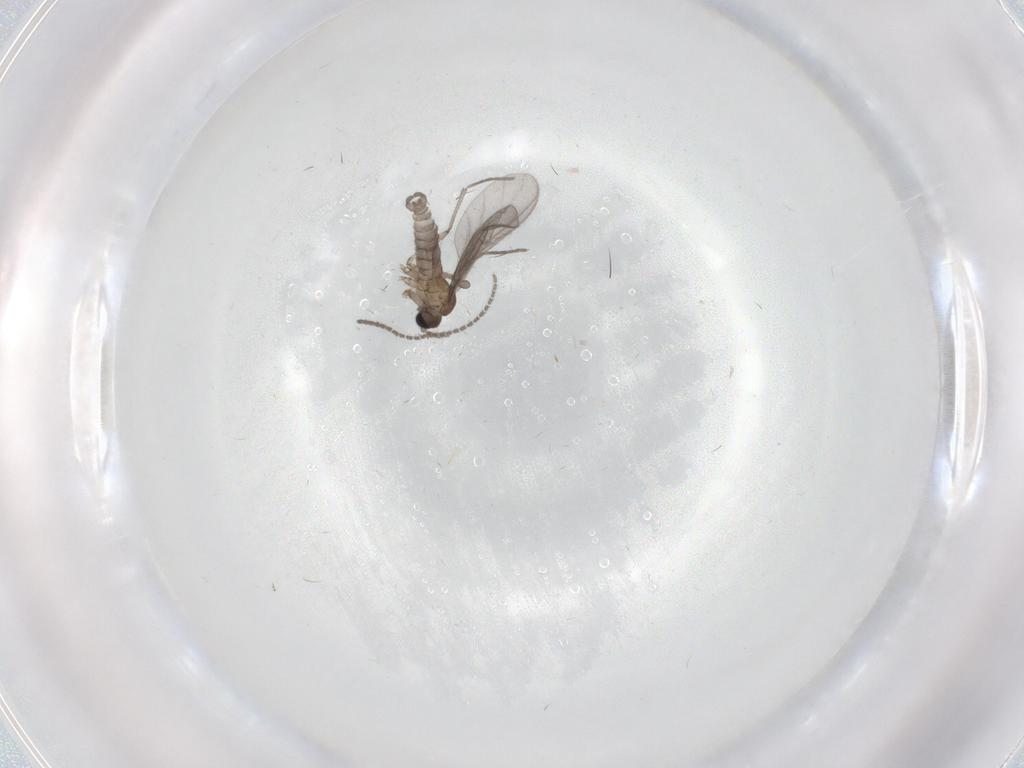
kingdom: Animalia
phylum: Arthropoda
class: Insecta
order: Diptera
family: Sciaridae
